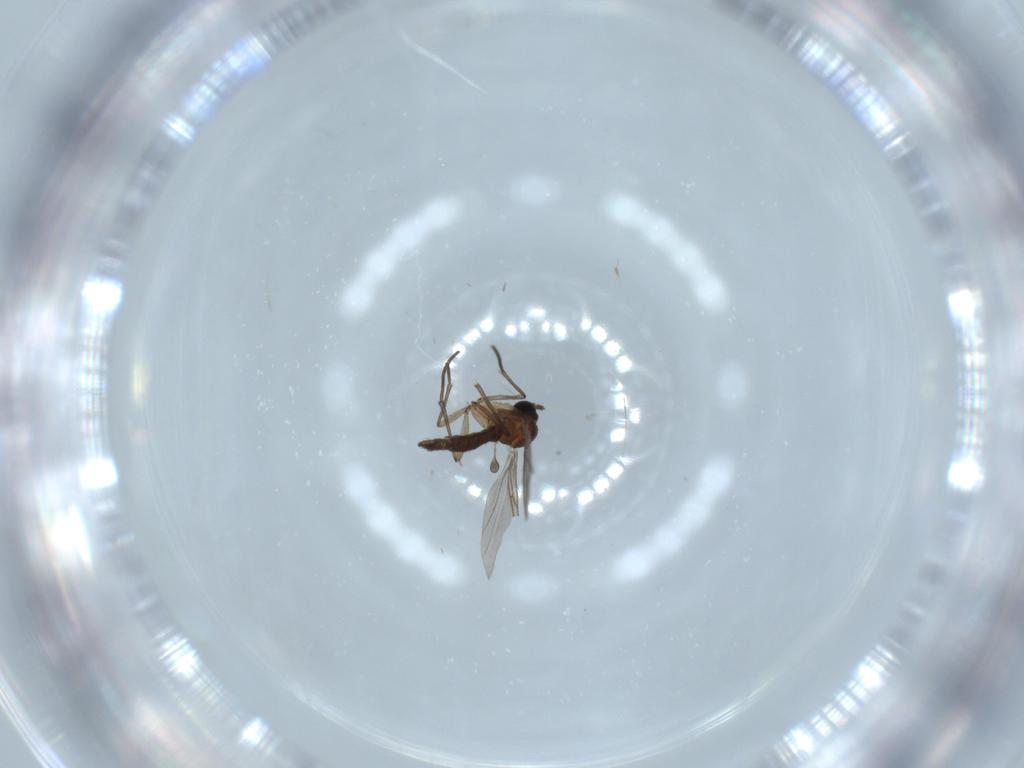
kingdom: Animalia
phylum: Arthropoda
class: Insecta
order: Diptera
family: Sciaridae
